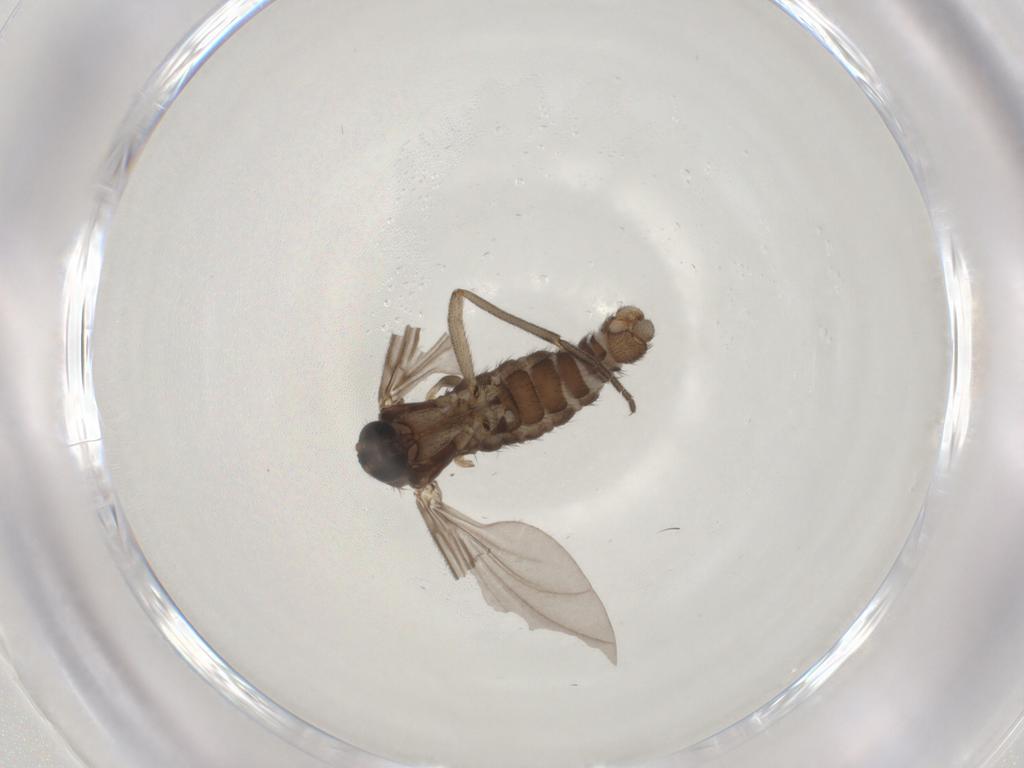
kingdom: Animalia
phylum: Arthropoda
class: Insecta
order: Diptera
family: Sciaridae
